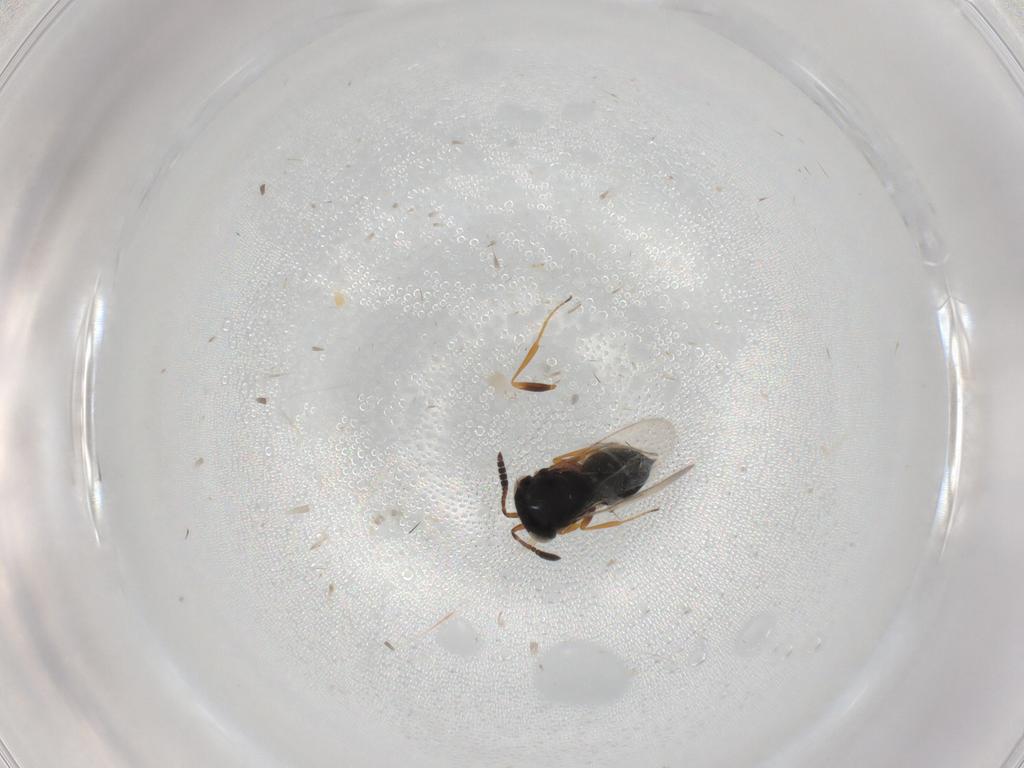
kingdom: Animalia
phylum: Arthropoda
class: Insecta
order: Hymenoptera
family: Scelionidae
